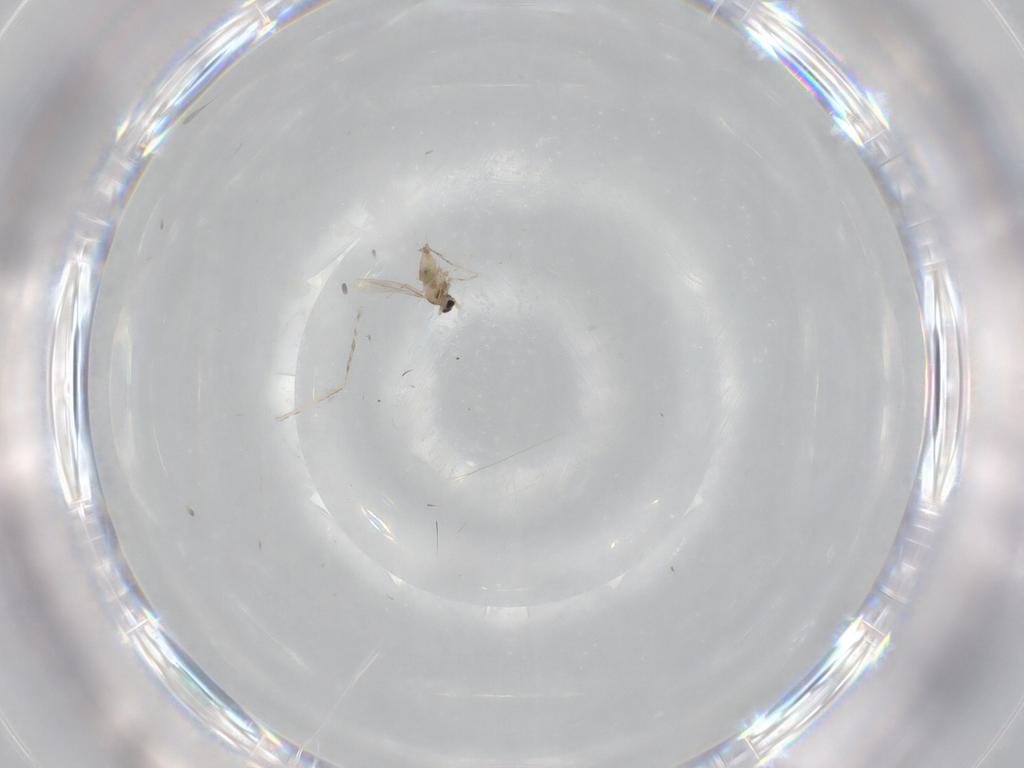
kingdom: Animalia
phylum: Arthropoda
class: Insecta
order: Diptera
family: Cecidomyiidae
